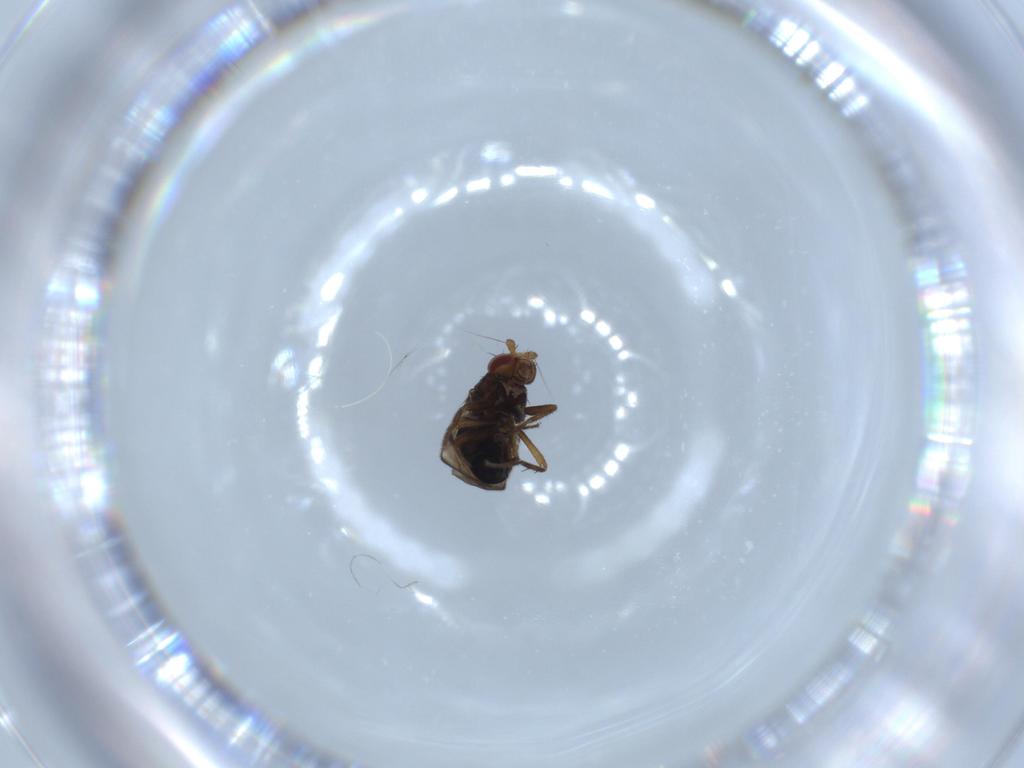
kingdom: Animalia
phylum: Arthropoda
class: Insecta
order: Diptera
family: Sphaeroceridae
